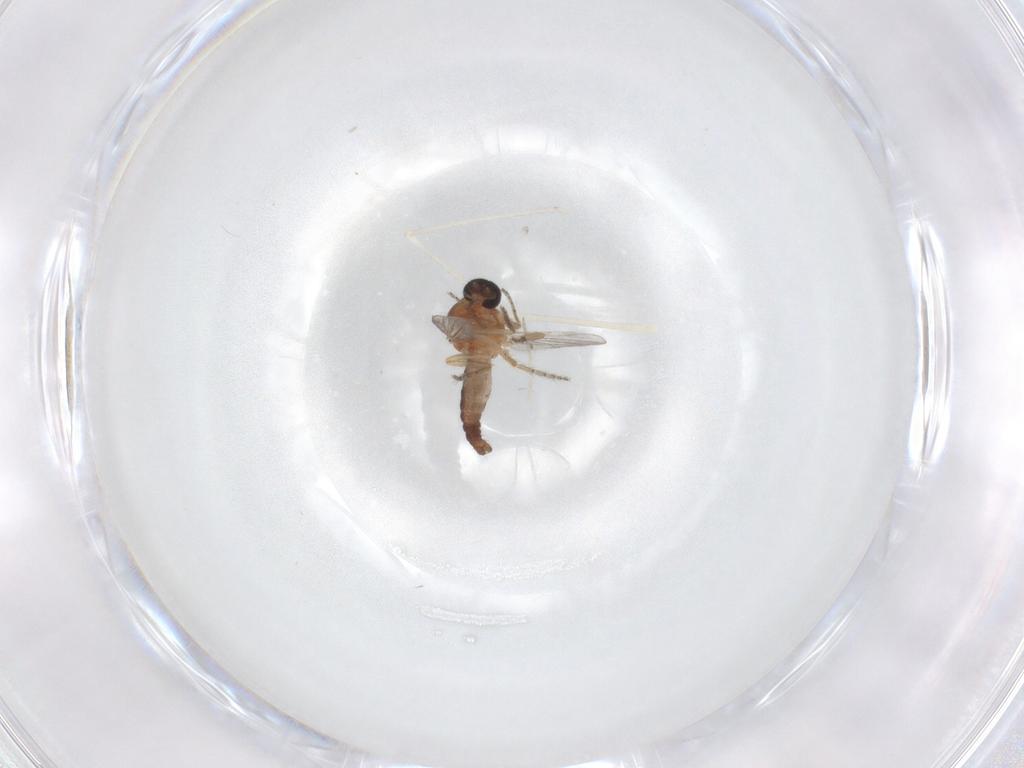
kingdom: Animalia
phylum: Arthropoda
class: Insecta
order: Diptera
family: Ceratopogonidae
